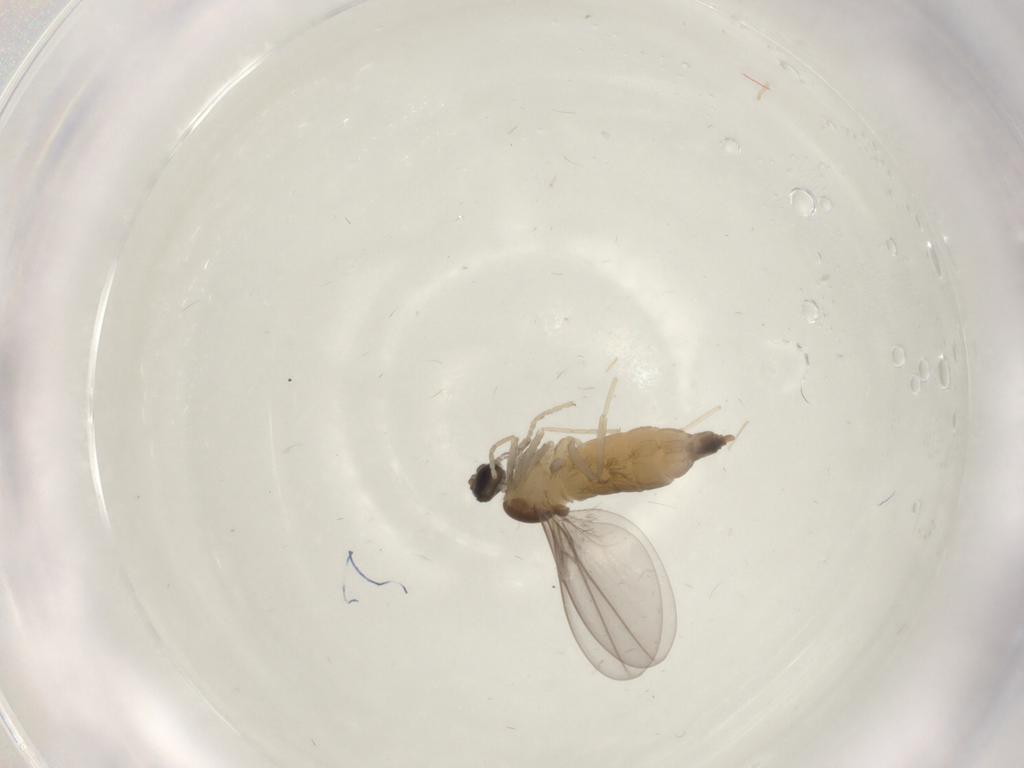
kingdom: Animalia
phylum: Arthropoda
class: Insecta
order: Diptera
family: Cecidomyiidae
